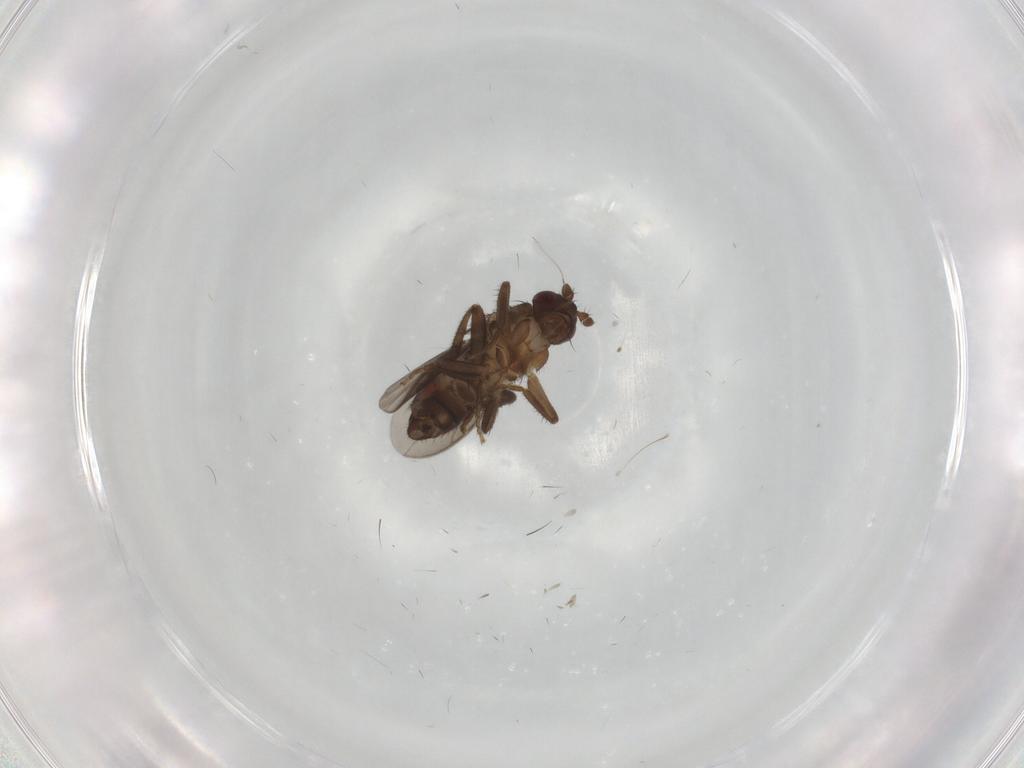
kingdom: Animalia
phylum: Arthropoda
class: Insecta
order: Diptera
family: Sphaeroceridae
